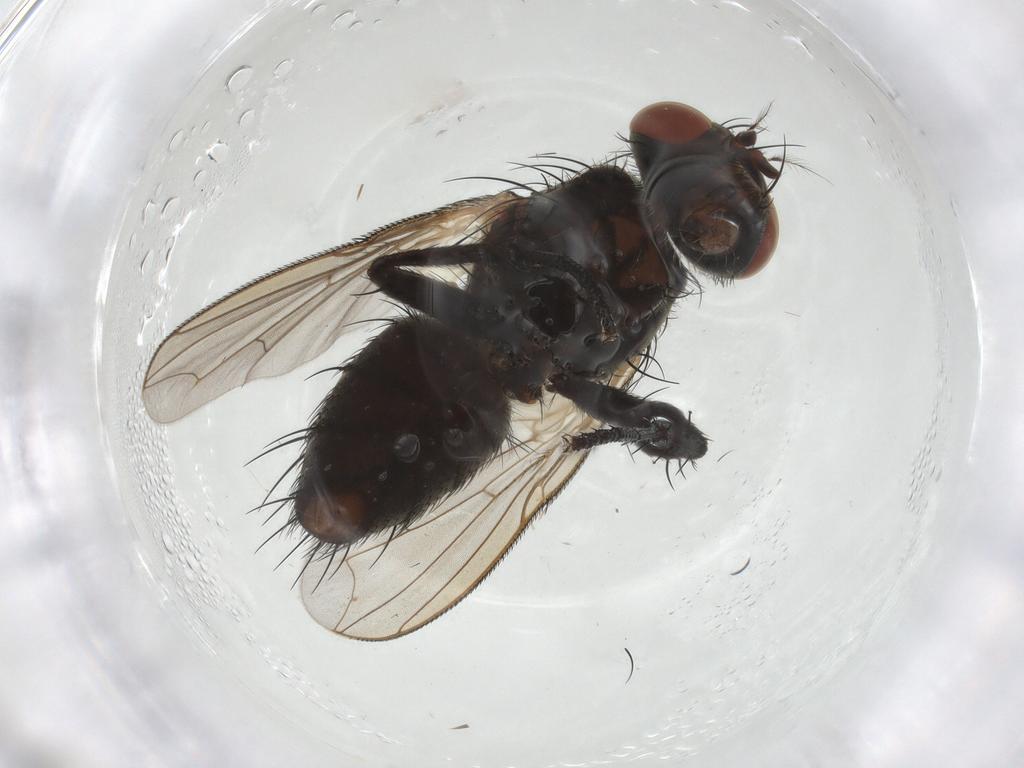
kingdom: Animalia
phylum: Arthropoda
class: Insecta
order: Diptera
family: Sarcophagidae
